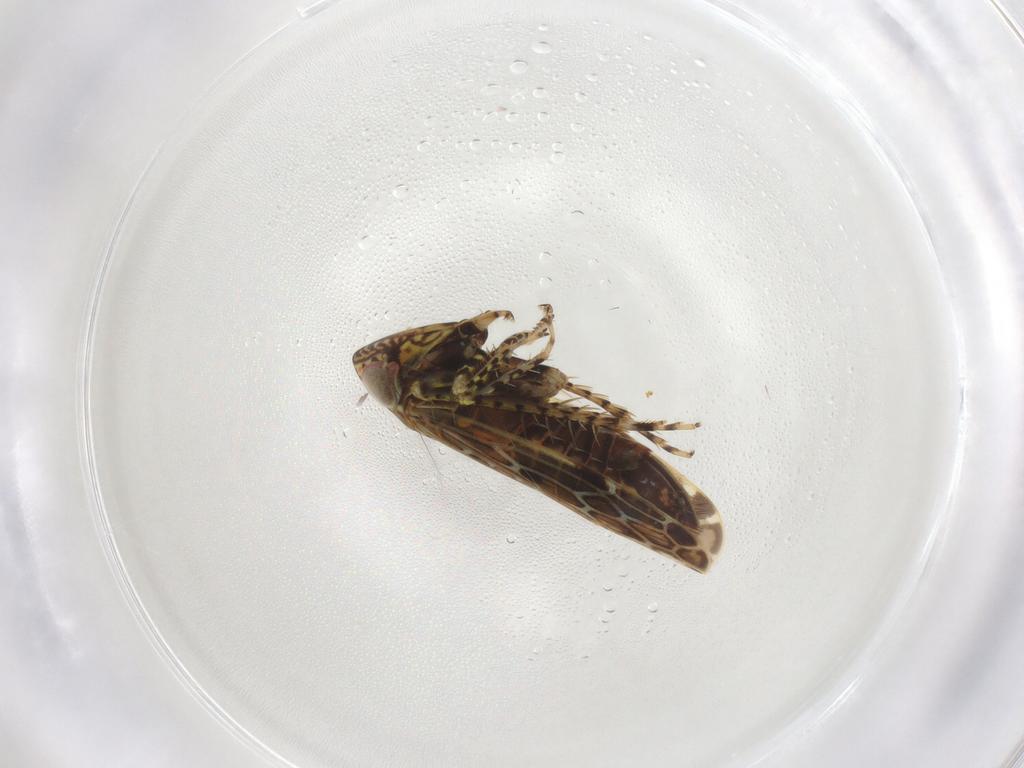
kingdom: Animalia
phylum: Arthropoda
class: Insecta
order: Hemiptera
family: Cicadellidae
